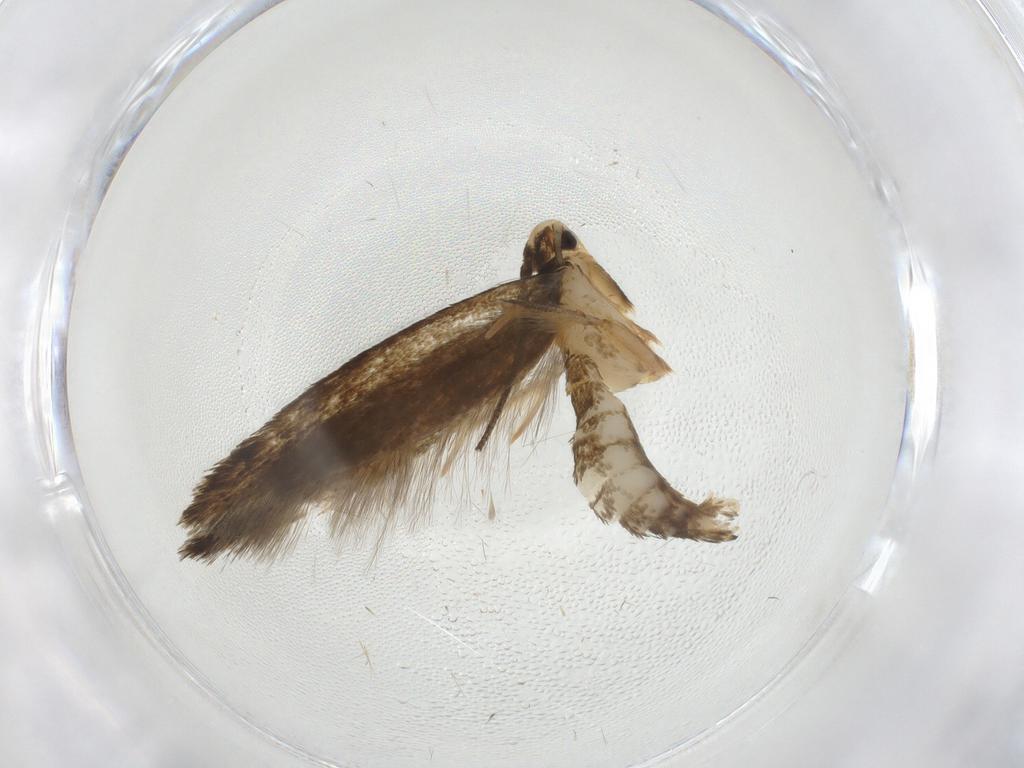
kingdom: Animalia
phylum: Arthropoda
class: Insecta
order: Lepidoptera
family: Tineidae
